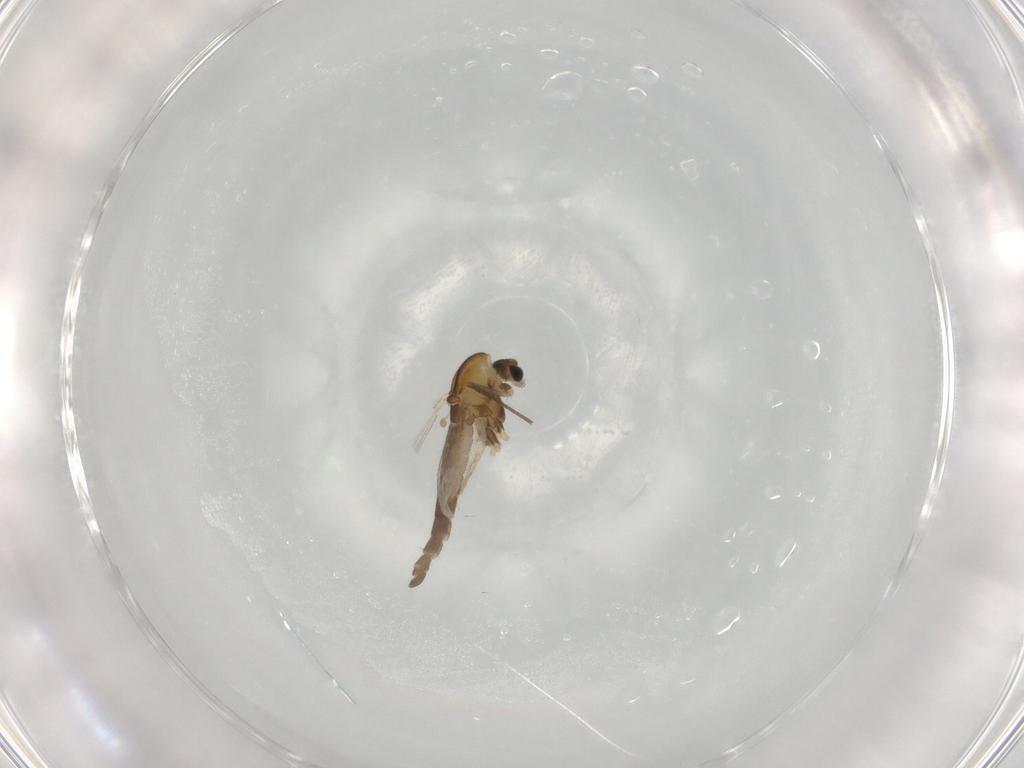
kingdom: Animalia
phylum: Arthropoda
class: Insecta
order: Diptera
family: Chironomidae
